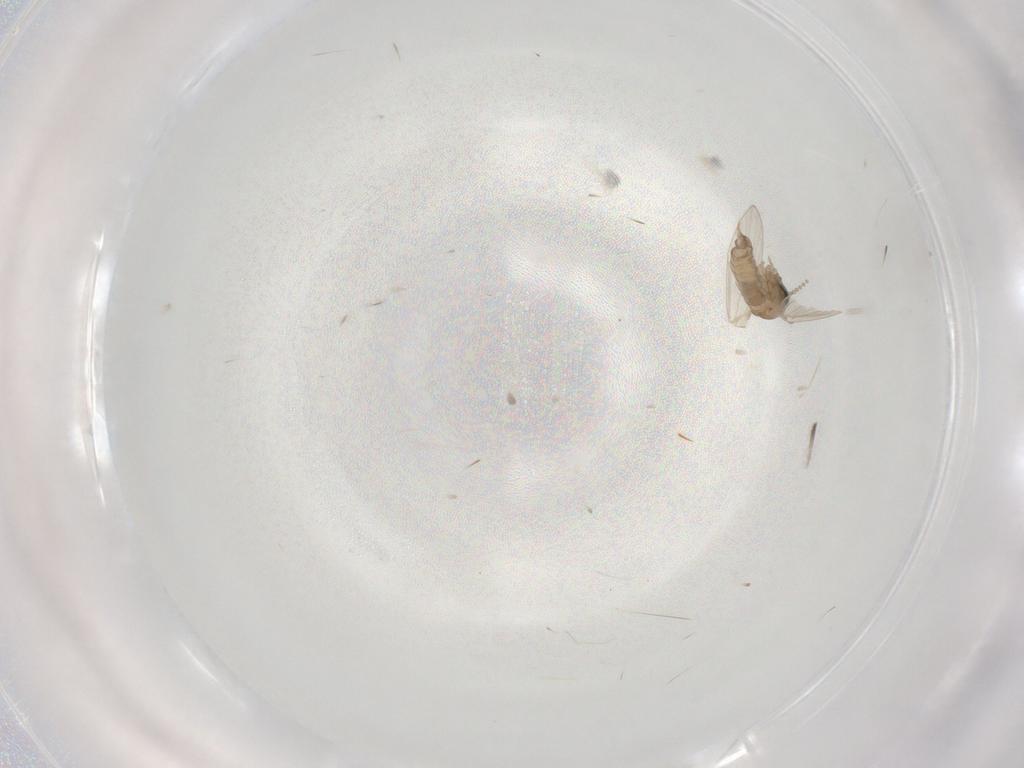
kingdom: Animalia
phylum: Arthropoda
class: Insecta
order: Diptera
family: Psychodidae
